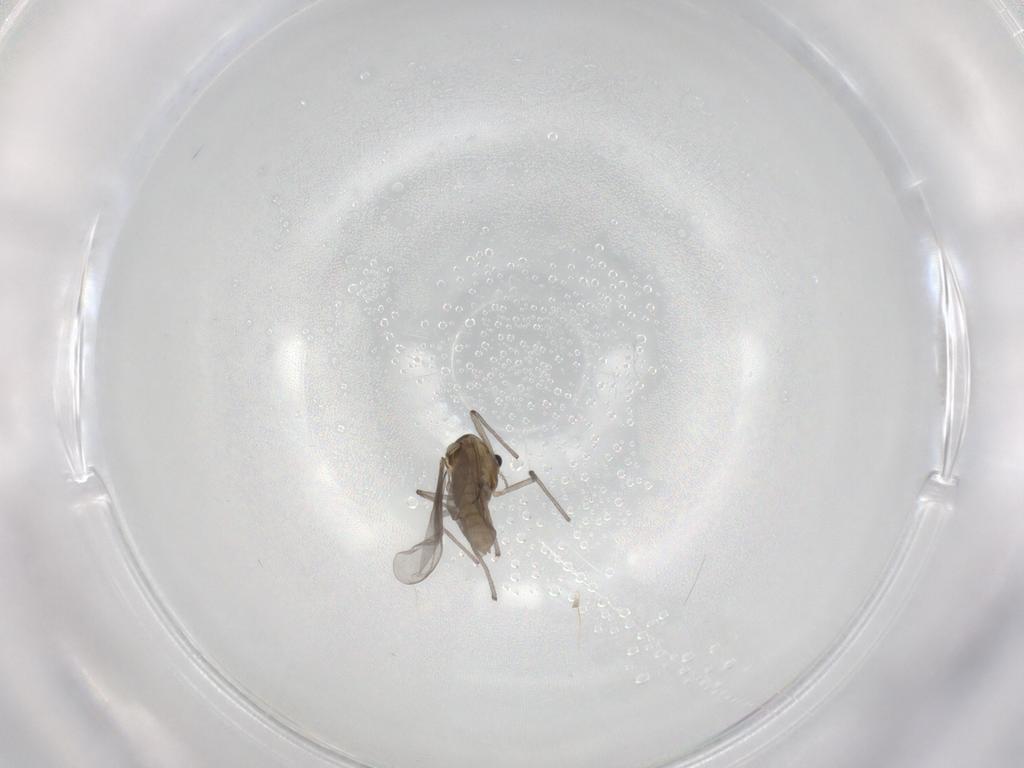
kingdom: Animalia
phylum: Arthropoda
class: Insecta
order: Diptera
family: Chironomidae
